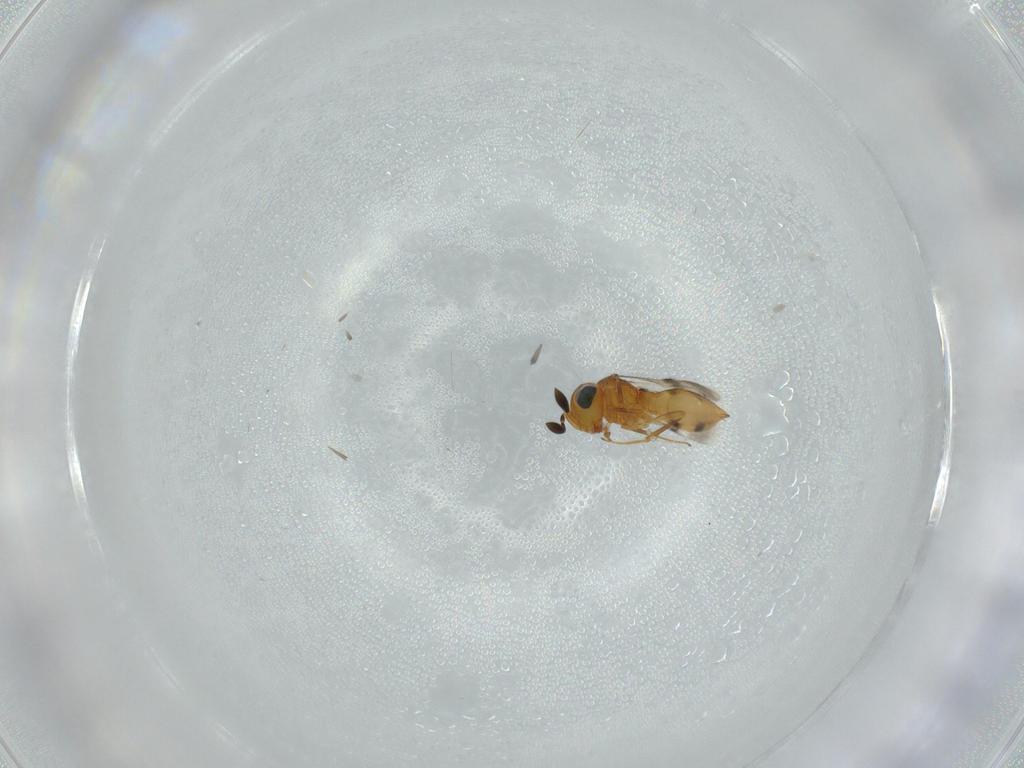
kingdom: Animalia
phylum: Arthropoda
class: Insecta
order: Hymenoptera
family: Scelionidae
